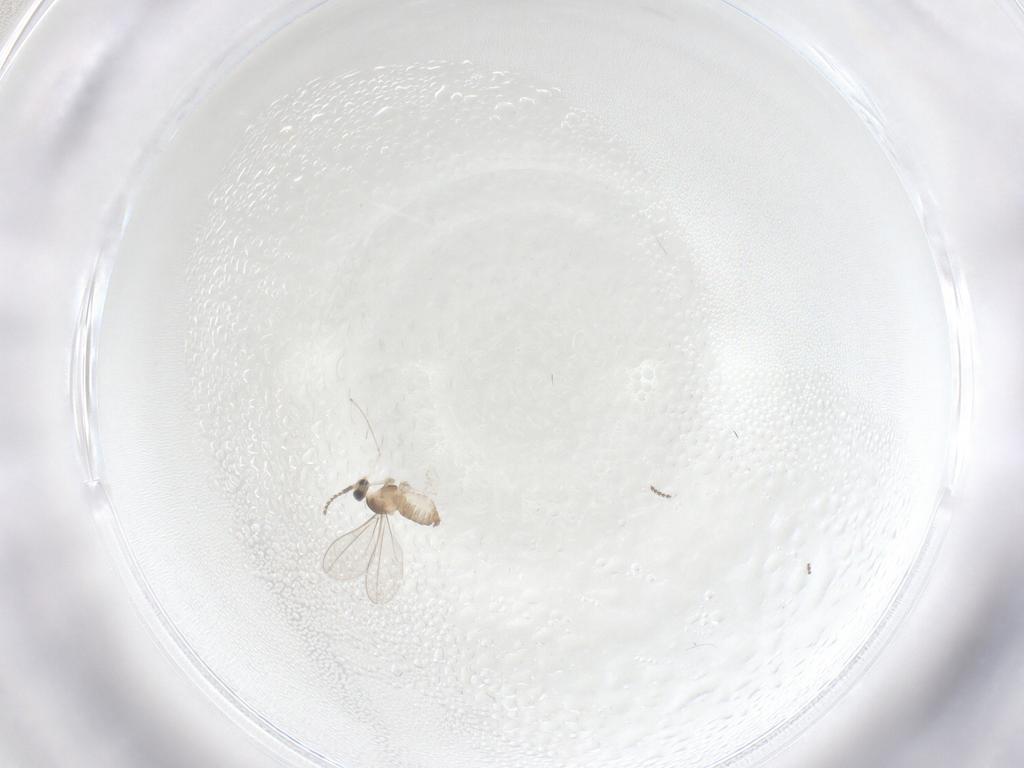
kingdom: Animalia
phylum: Arthropoda
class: Insecta
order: Diptera
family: Cecidomyiidae
